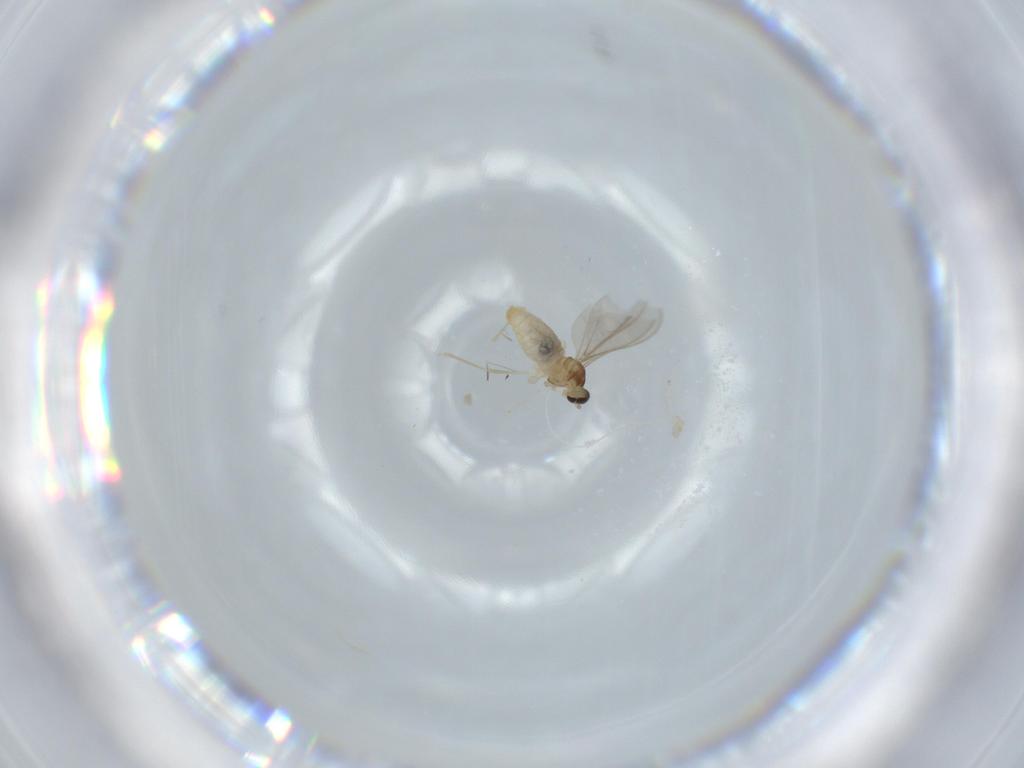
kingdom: Animalia
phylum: Arthropoda
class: Insecta
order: Diptera
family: Cecidomyiidae
